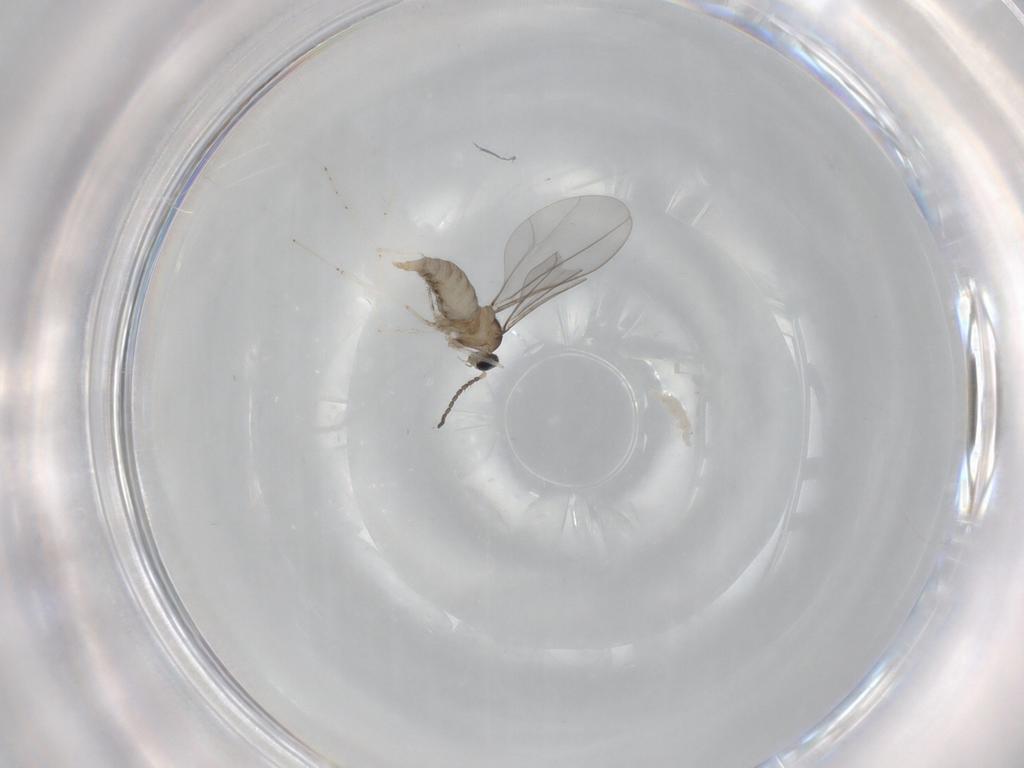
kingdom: Animalia
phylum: Arthropoda
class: Insecta
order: Diptera
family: Cecidomyiidae
